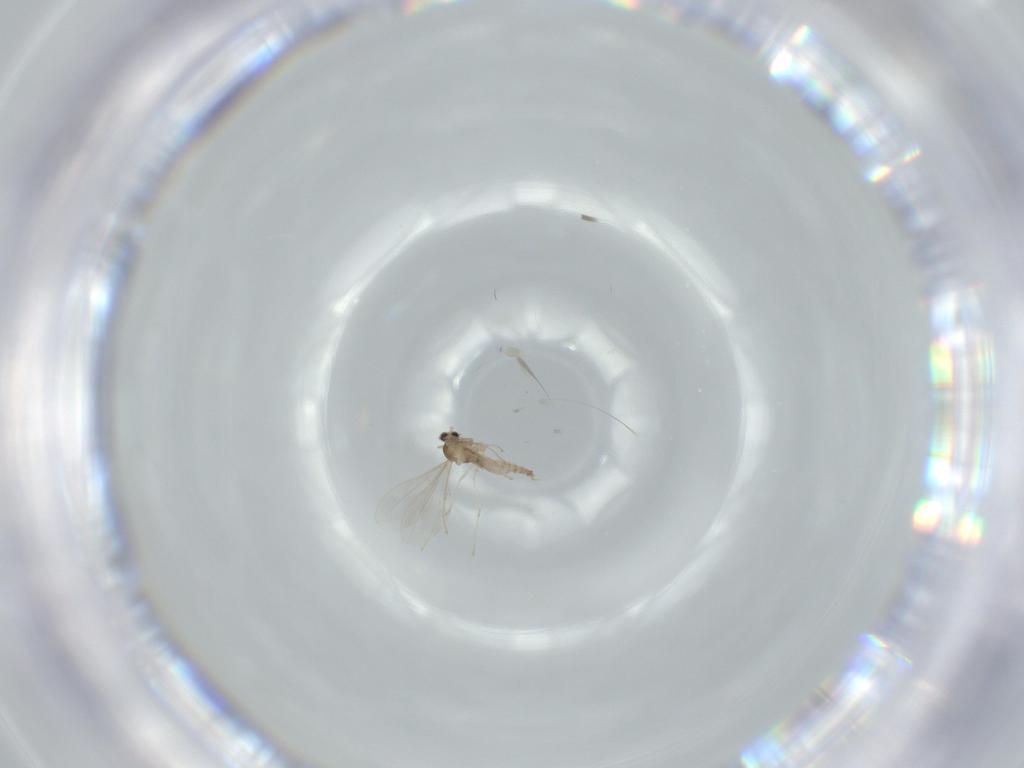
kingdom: Animalia
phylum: Arthropoda
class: Insecta
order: Diptera
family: Cecidomyiidae
